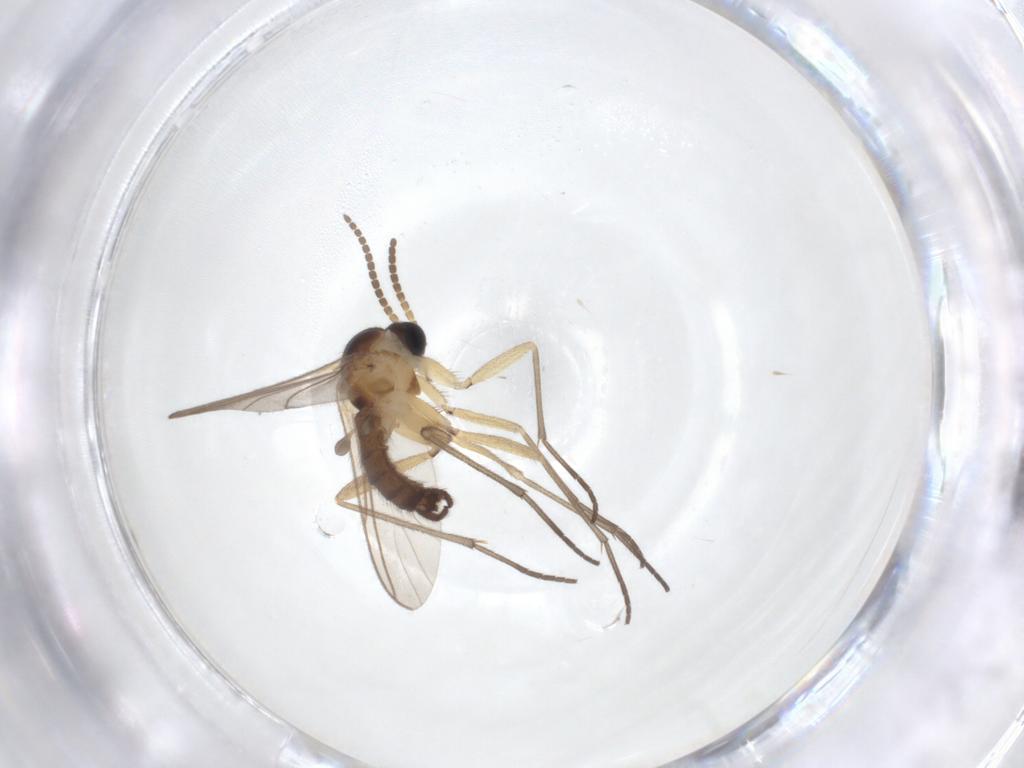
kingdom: Animalia
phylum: Arthropoda
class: Insecta
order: Diptera
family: Sciaridae
